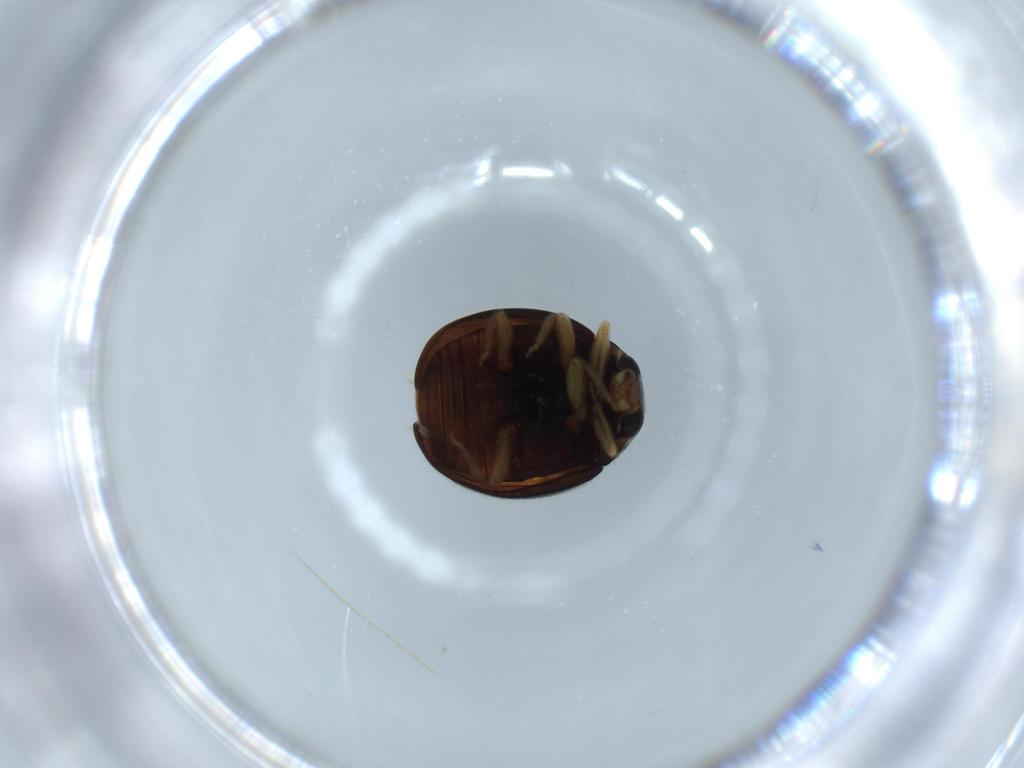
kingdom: Animalia
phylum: Arthropoda
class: Insecta
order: Coleoptera
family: Coccinellidae
